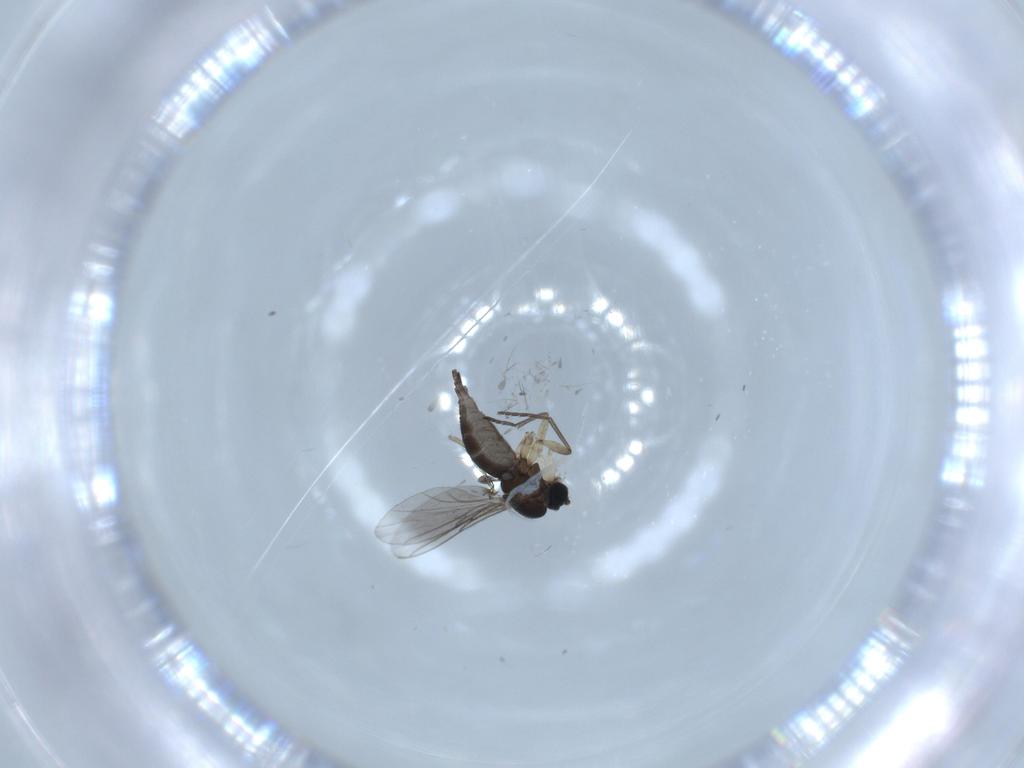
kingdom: Animalia
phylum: Arthropoda
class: Insecta
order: Diptera
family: Sciaridae
